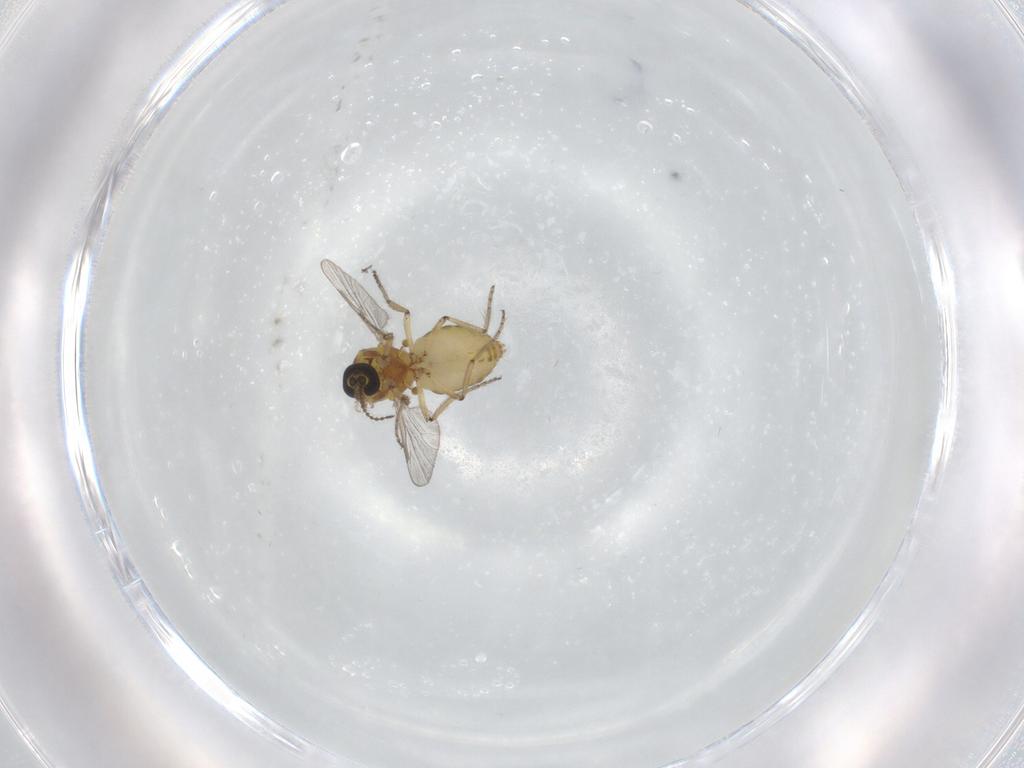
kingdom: Animalia
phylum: Arthropoda
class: Insecta
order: Diptera
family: Ceratopogonidae
